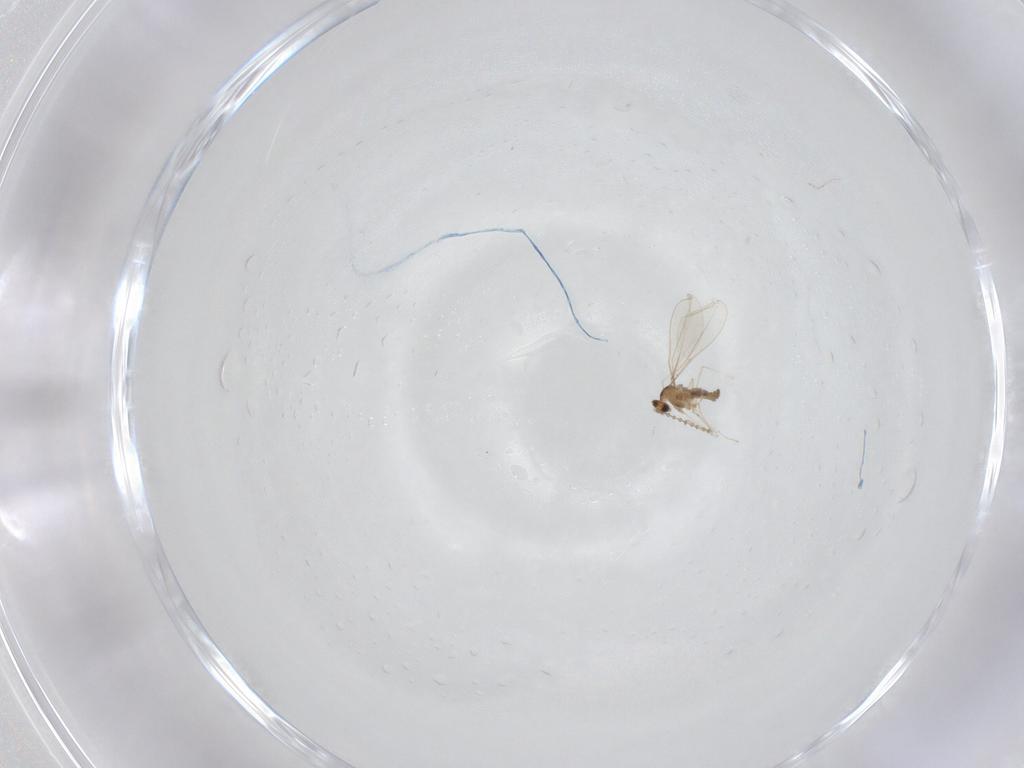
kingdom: Animalia
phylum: Arthropoda
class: Insecta
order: Diptera
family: Cecidomyiidae
